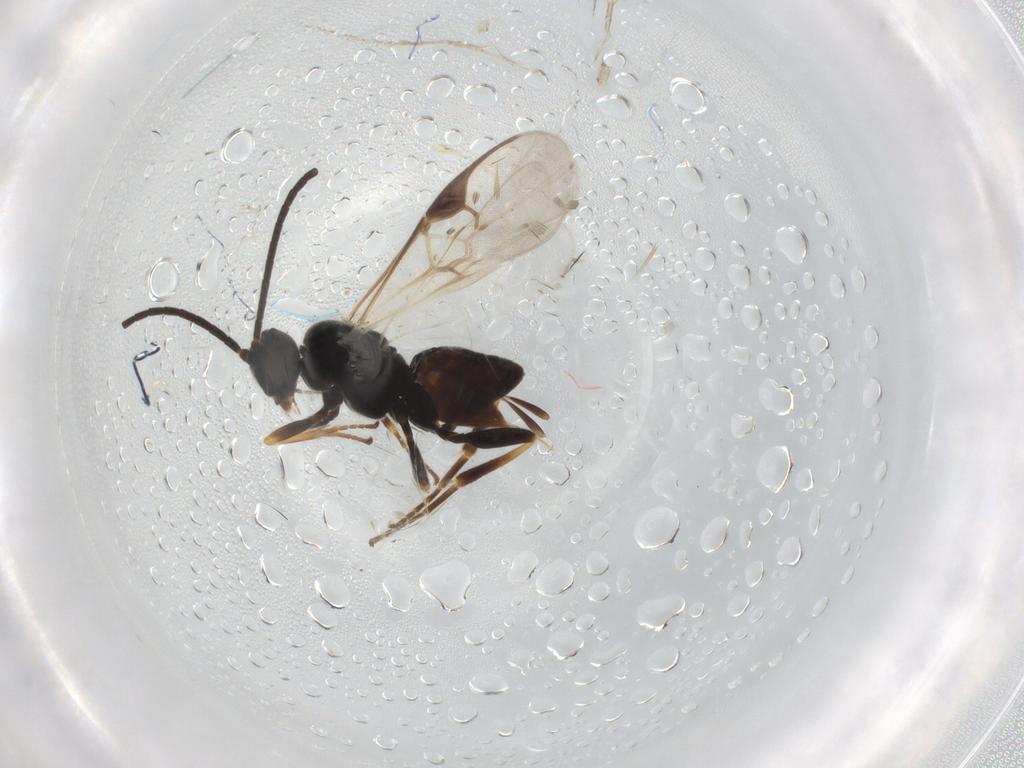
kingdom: Animalia
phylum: Arthropoda
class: Insecta
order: Hymenoptera
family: Braconidae
